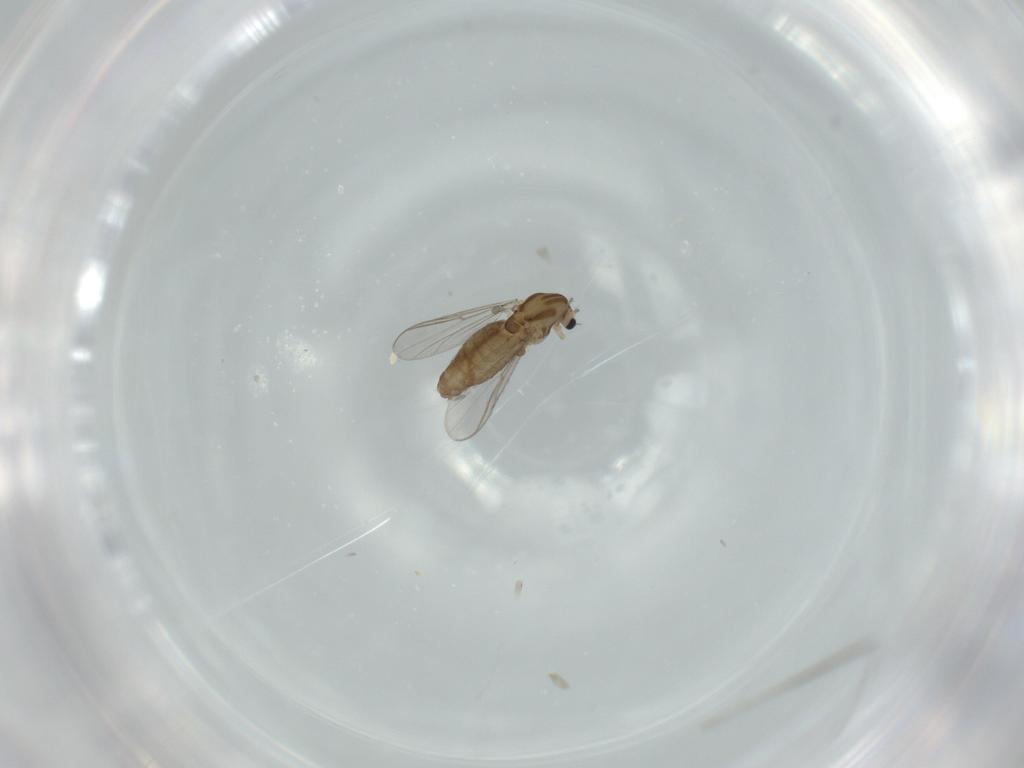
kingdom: Animalia
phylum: Arthropoda
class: Insecta
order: Diptera
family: Chironomidae
